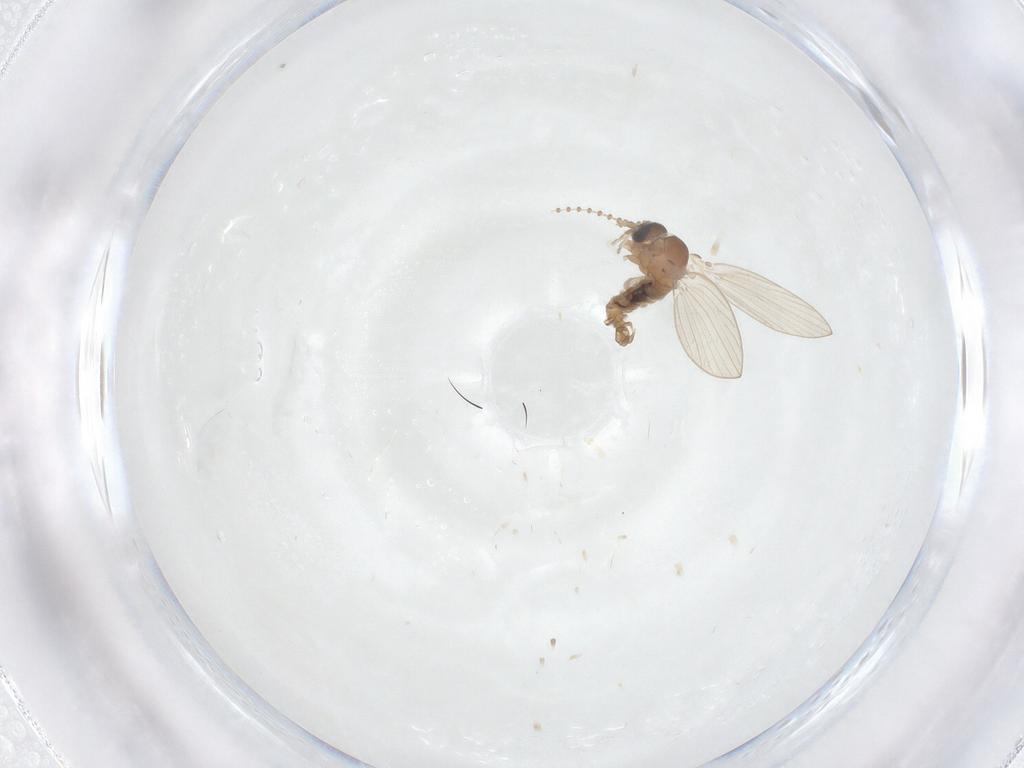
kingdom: Animalia
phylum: Arthropoda
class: Insecta
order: Diptera
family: Psychodidae
